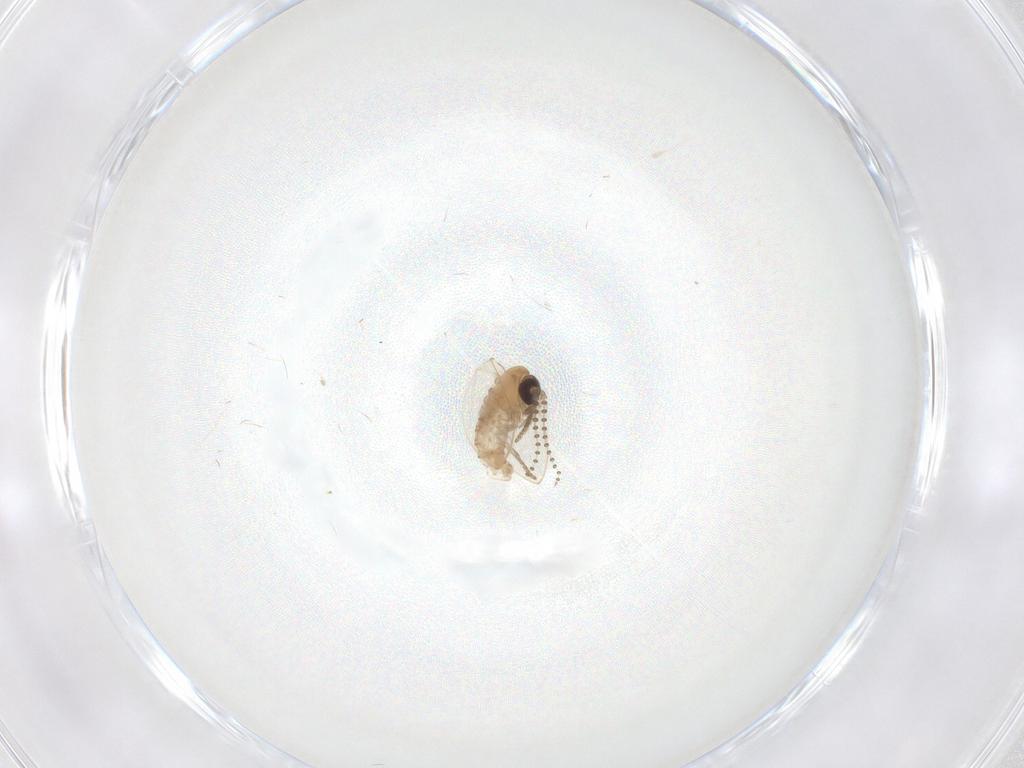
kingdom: Animalia
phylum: Arthropoda
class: Insecta
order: Diptera
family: Psychodidae
